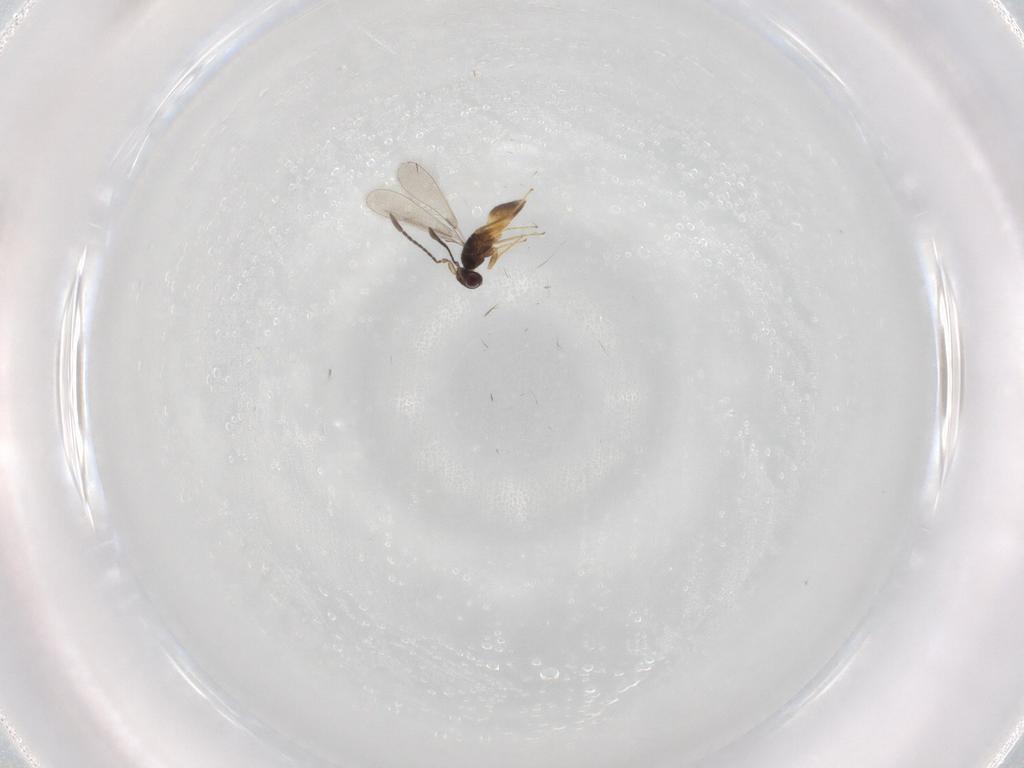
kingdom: Animalia
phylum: Arthropoda
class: Insecta
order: Hymenoptera
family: Mymaridae
